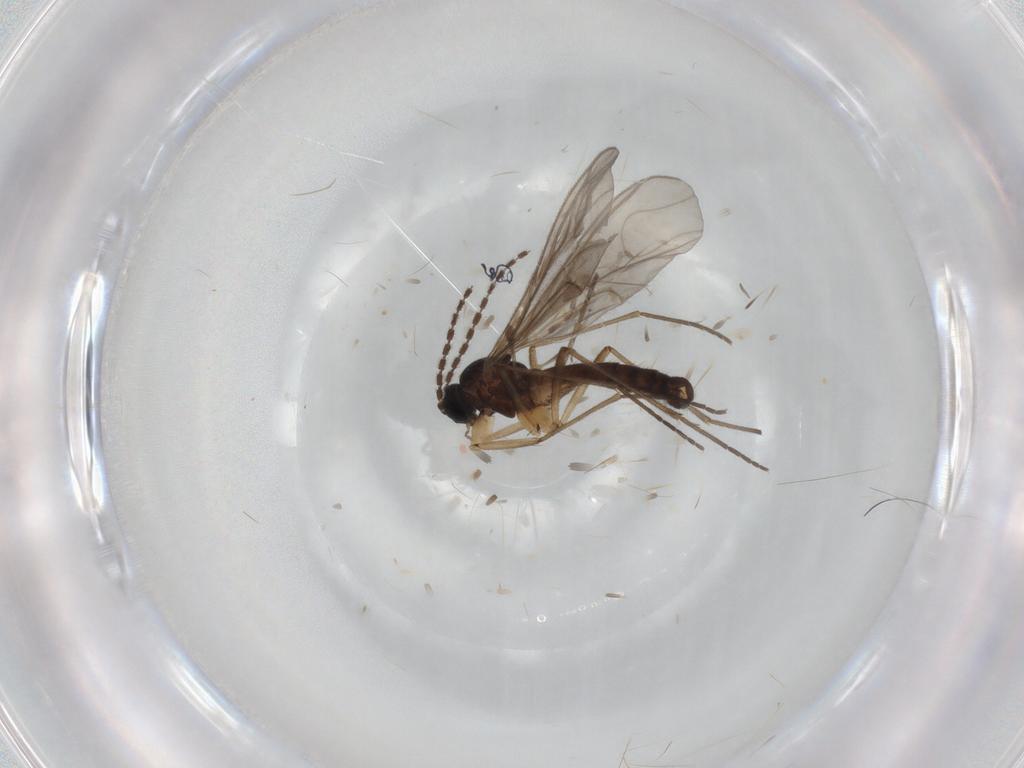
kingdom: Animalia
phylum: Arthropoda
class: Insecta
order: Diptera
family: Sciaridae
